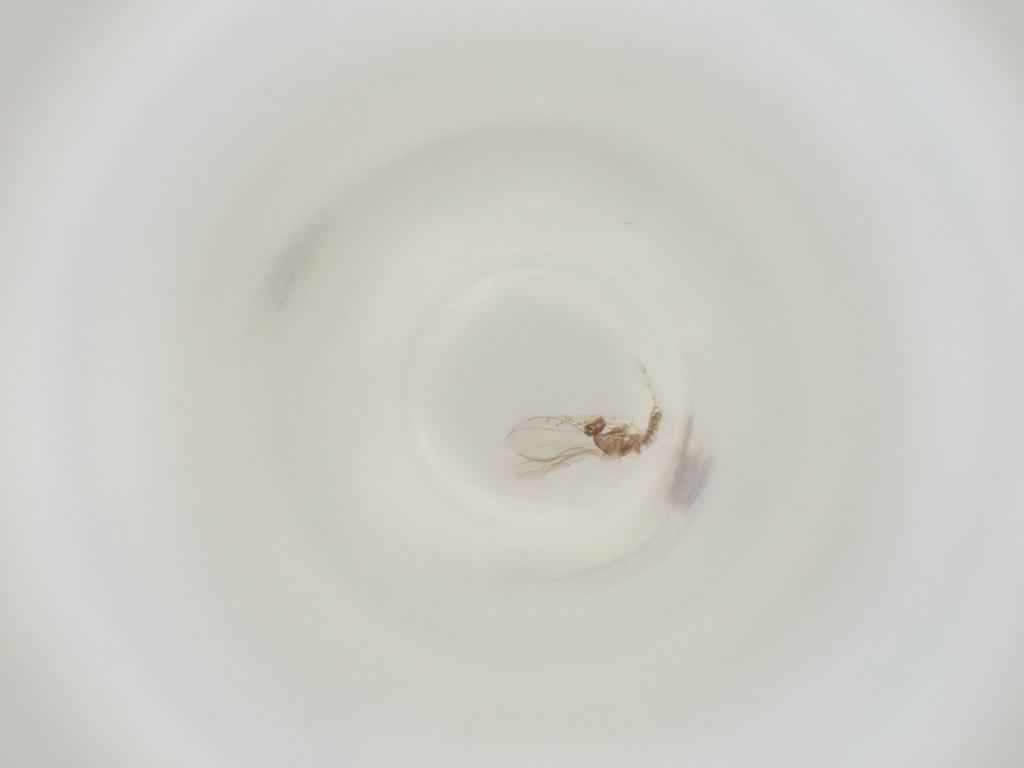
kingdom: Animalia
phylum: Arthropoda
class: Insecta
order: Diptera
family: Cecidomyiidae
